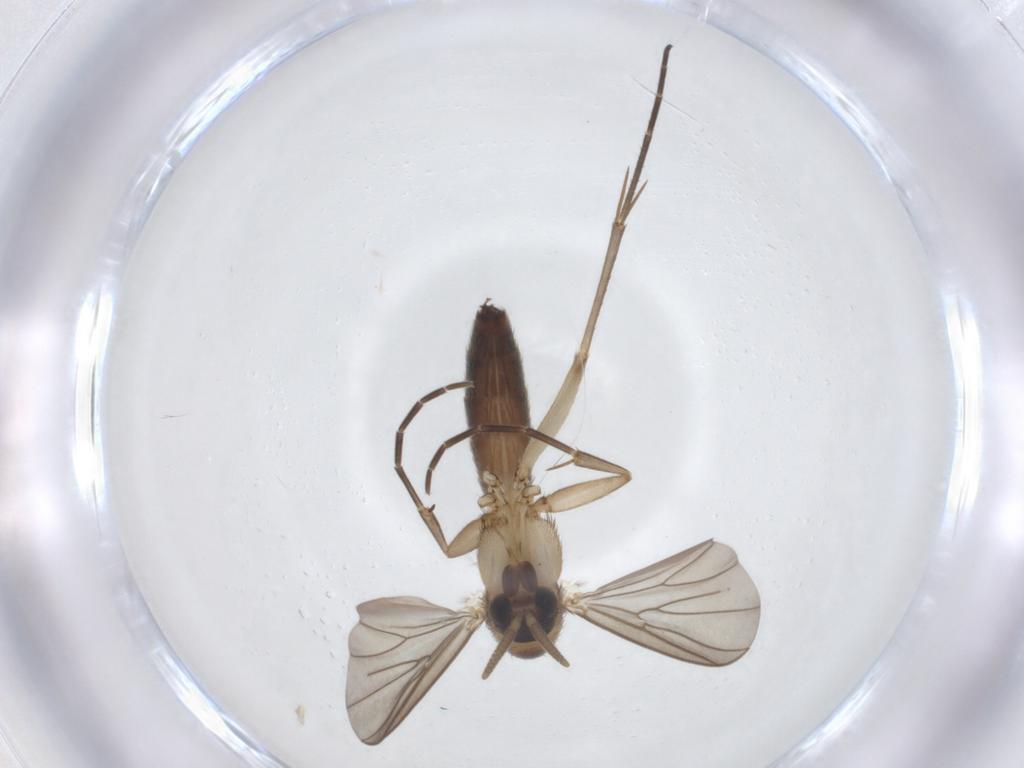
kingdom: Animalia
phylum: Arthropoda
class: Insecta
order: Diptera
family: Mycetophilidae
